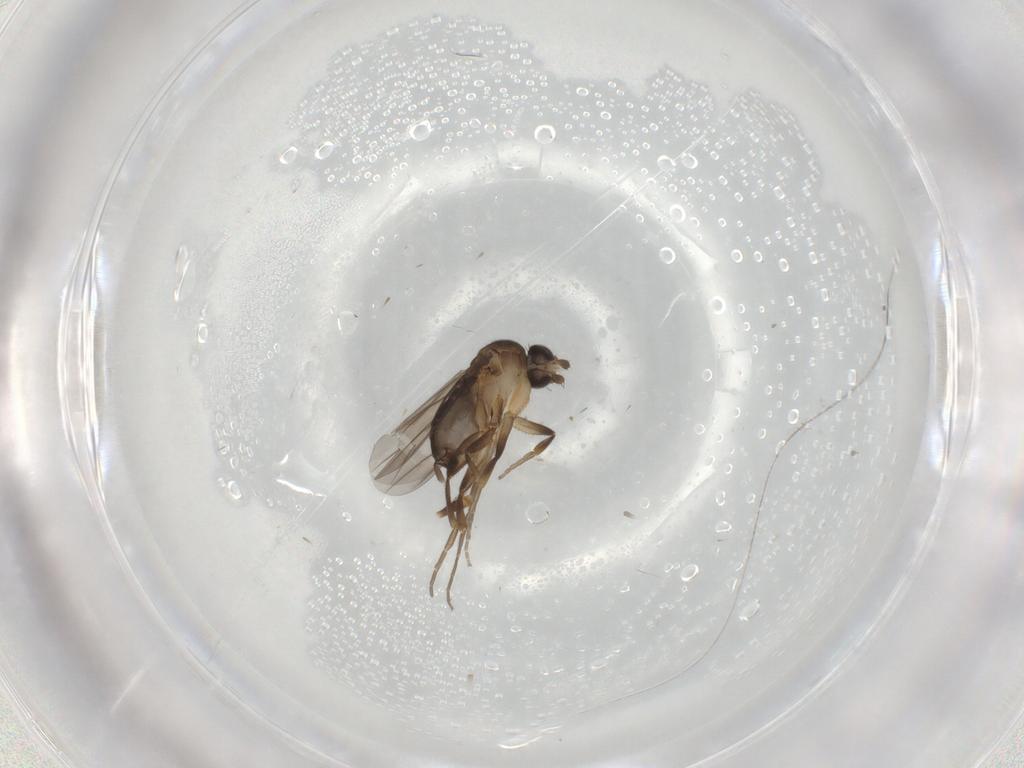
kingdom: Animalia
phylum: Arthropoda
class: Insecta
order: Diptera
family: Phoridae
